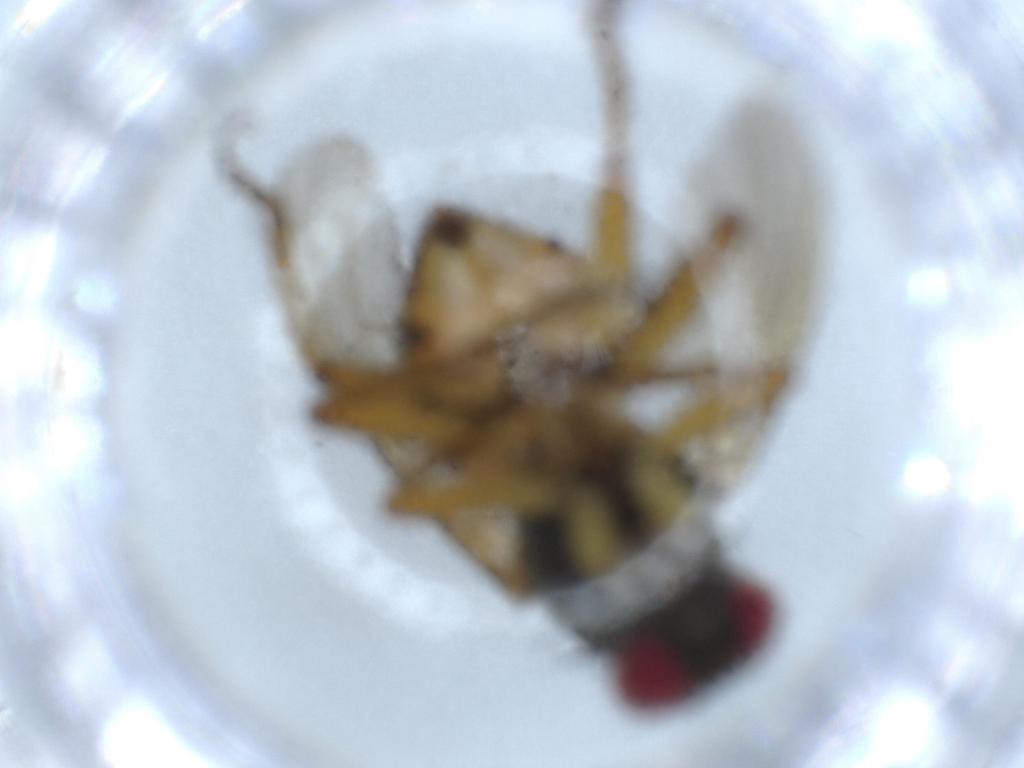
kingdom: Animalia
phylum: Arthropoda
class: Insecta
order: Diptera
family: Muscidae
